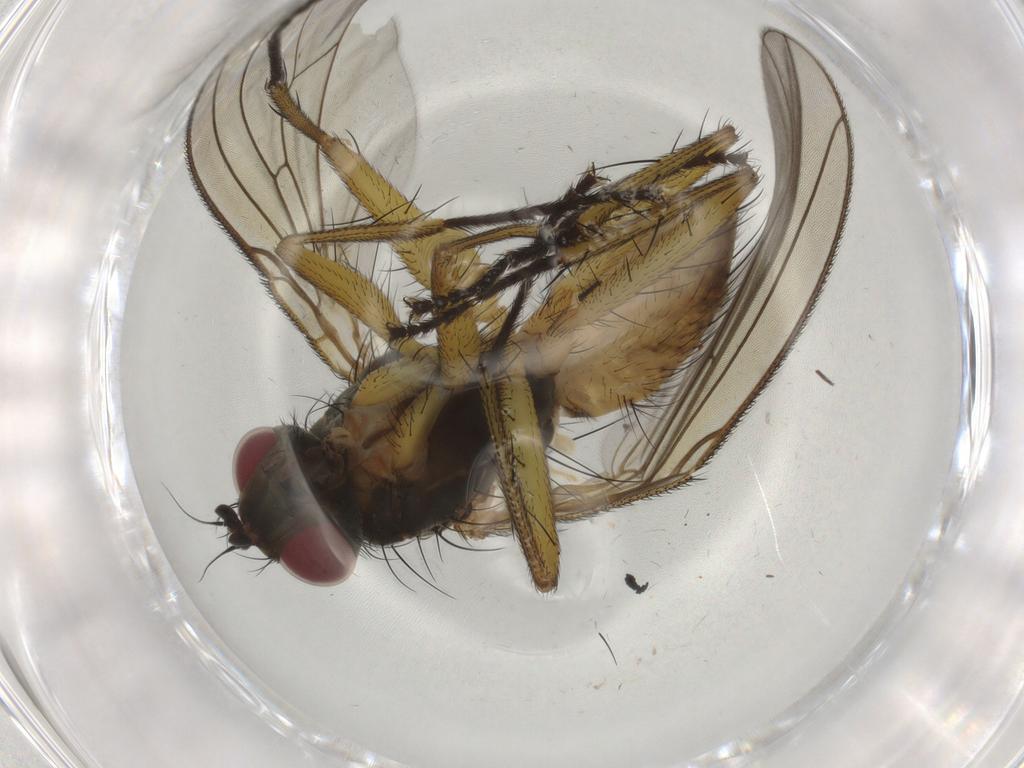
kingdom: Animalia
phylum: Arthropoda
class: Insecta
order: Diptera
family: Muscidae
